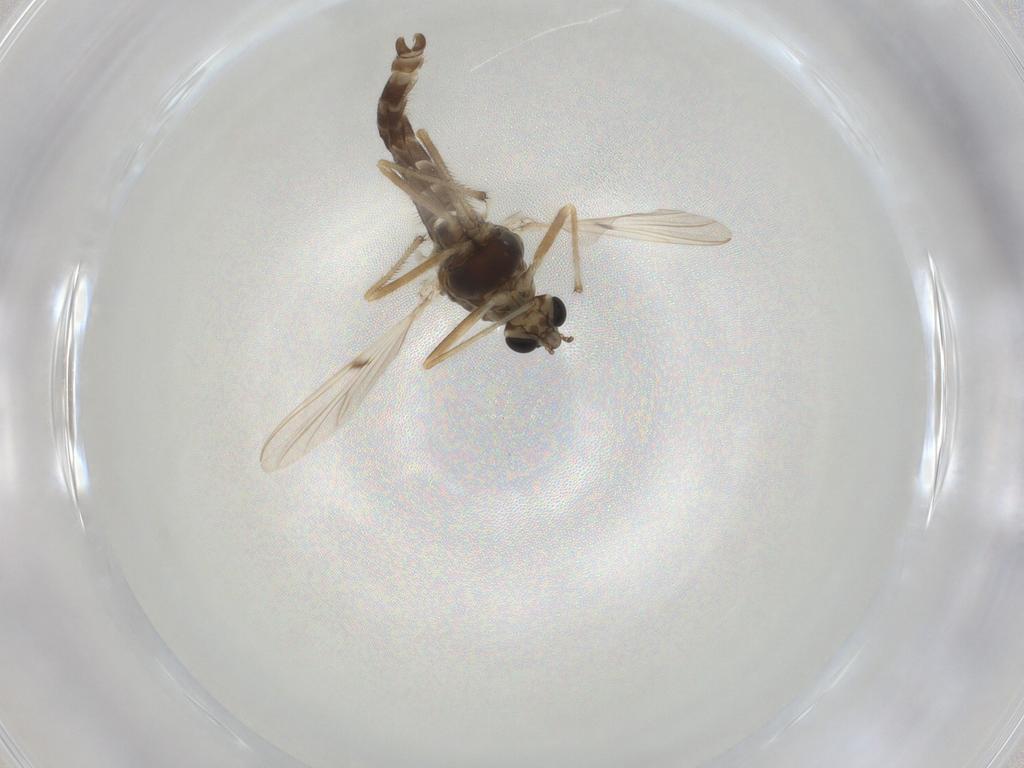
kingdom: Animalia
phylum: Arthropoda
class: Insecta
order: Diptera
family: Chironomidae
